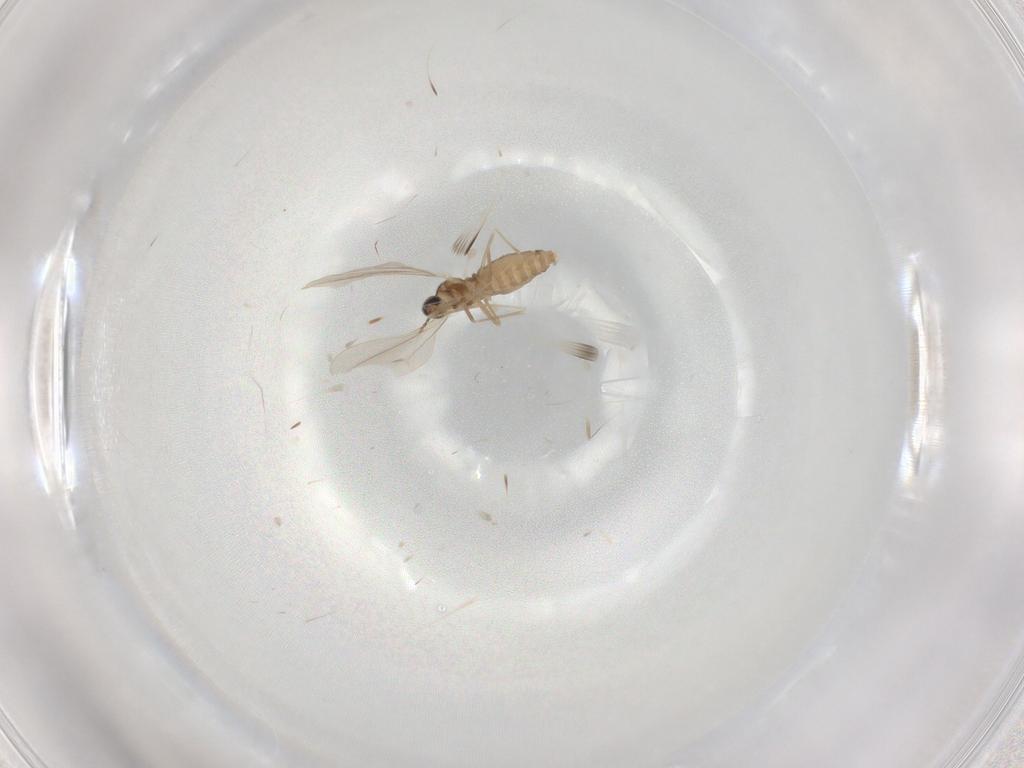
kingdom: Animalia
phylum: Arthropoda
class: Insecta
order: Diptera
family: Cecidomyiidae
